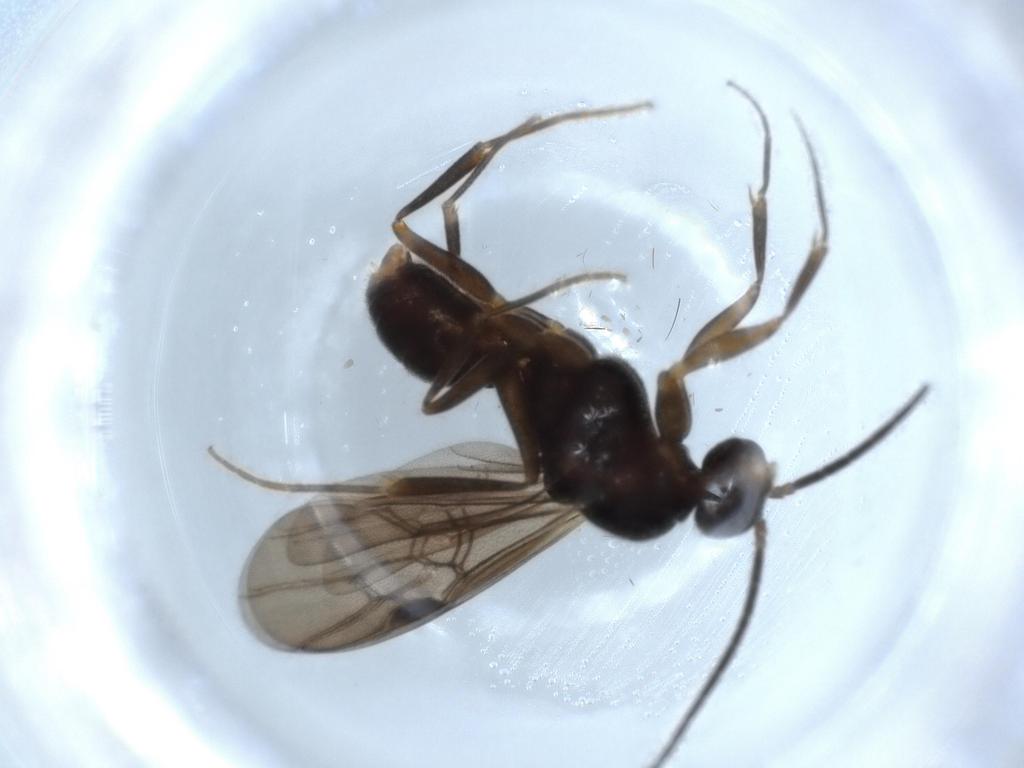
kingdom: Animalia
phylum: Arthropoda
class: Insecta
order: Hymenoptera
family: Formicidae
